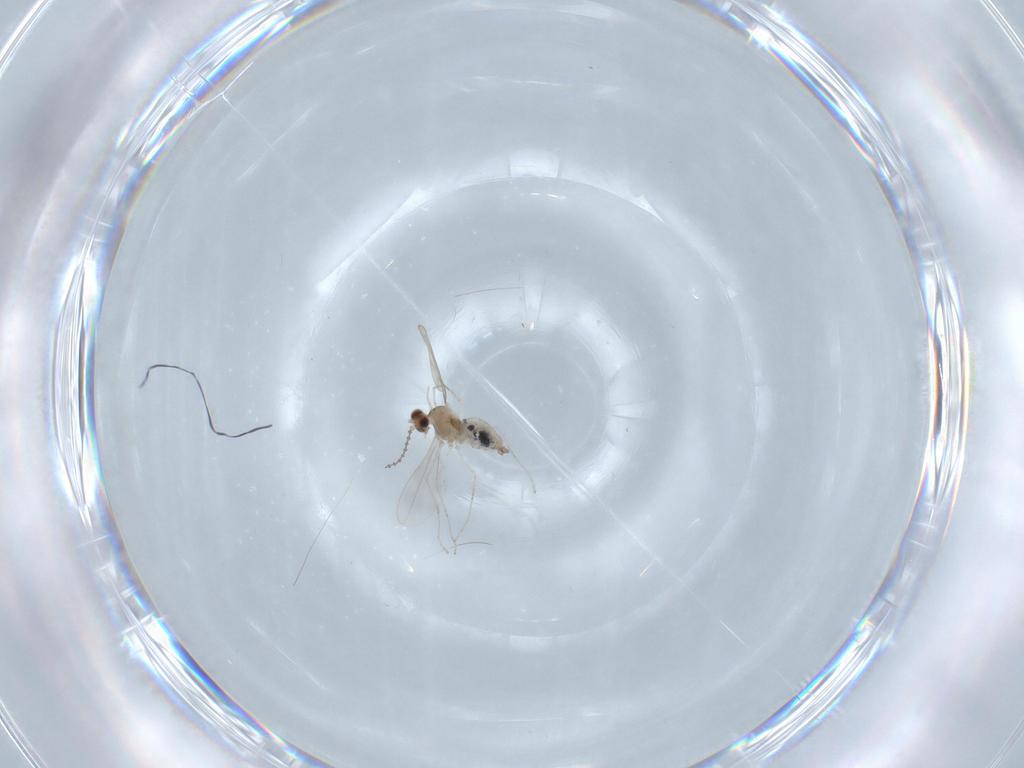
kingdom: Animalia
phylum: Arthropoda
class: Insecta
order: Diptera
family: Cecidomyiidae
